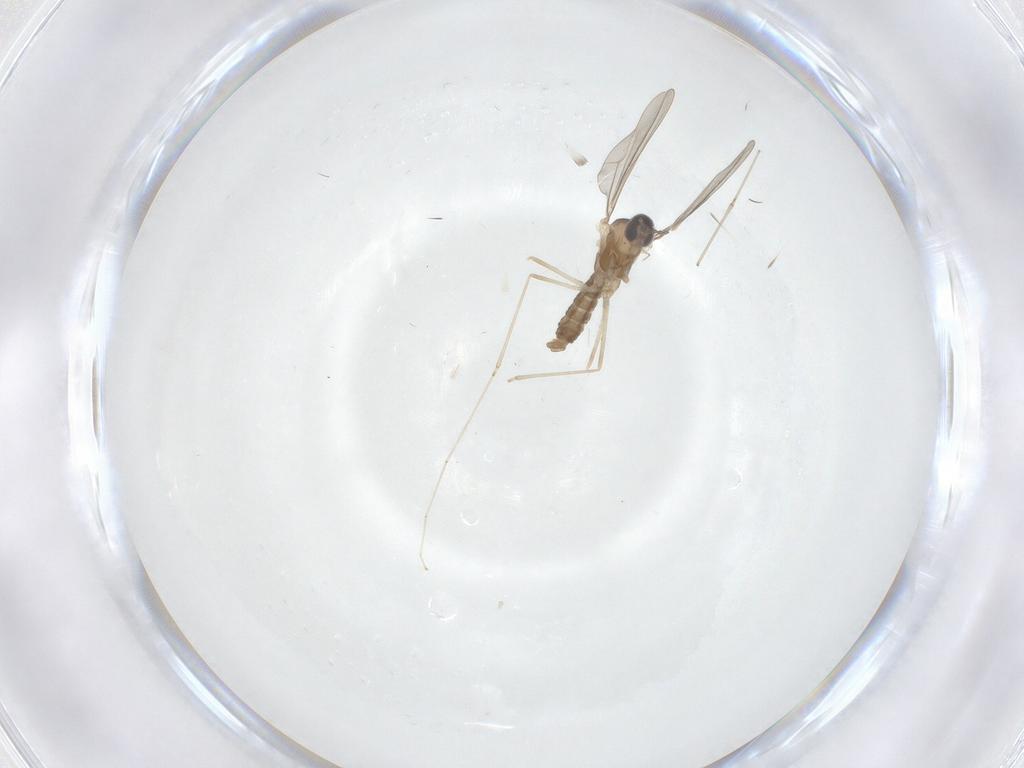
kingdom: Animalia
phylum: Arthropoda
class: Insecta
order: Diptera
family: Cecidomyiidae
